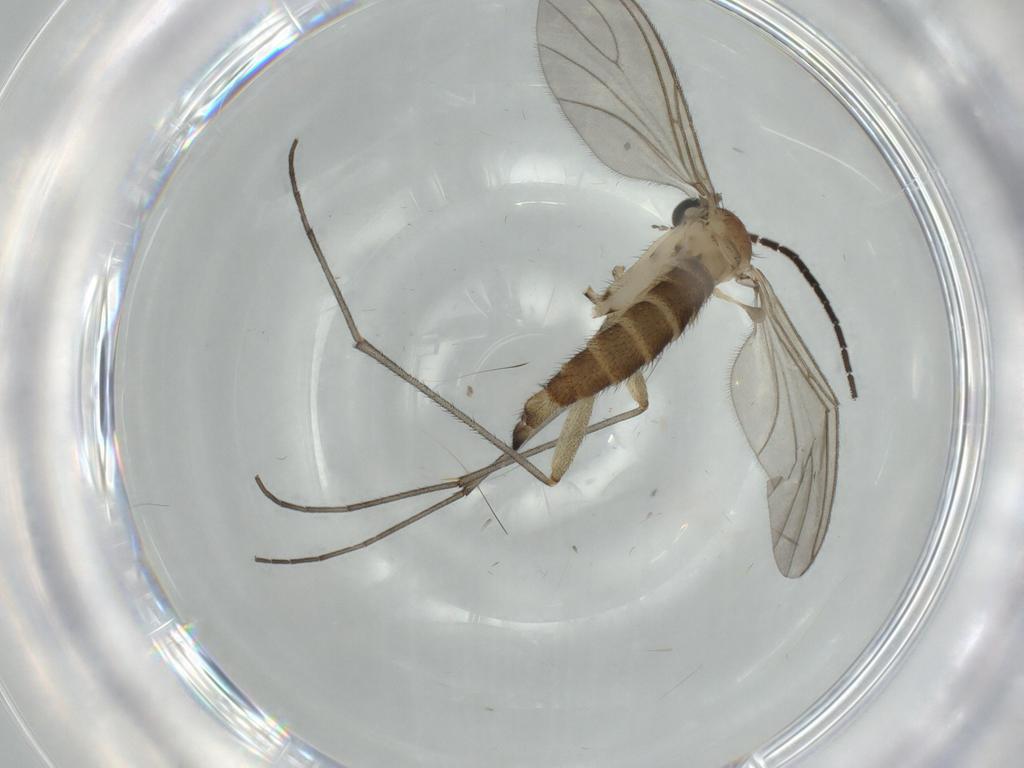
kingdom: Animalia
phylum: Arthropoda
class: Insecta
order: Diptera
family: Sciaridae
